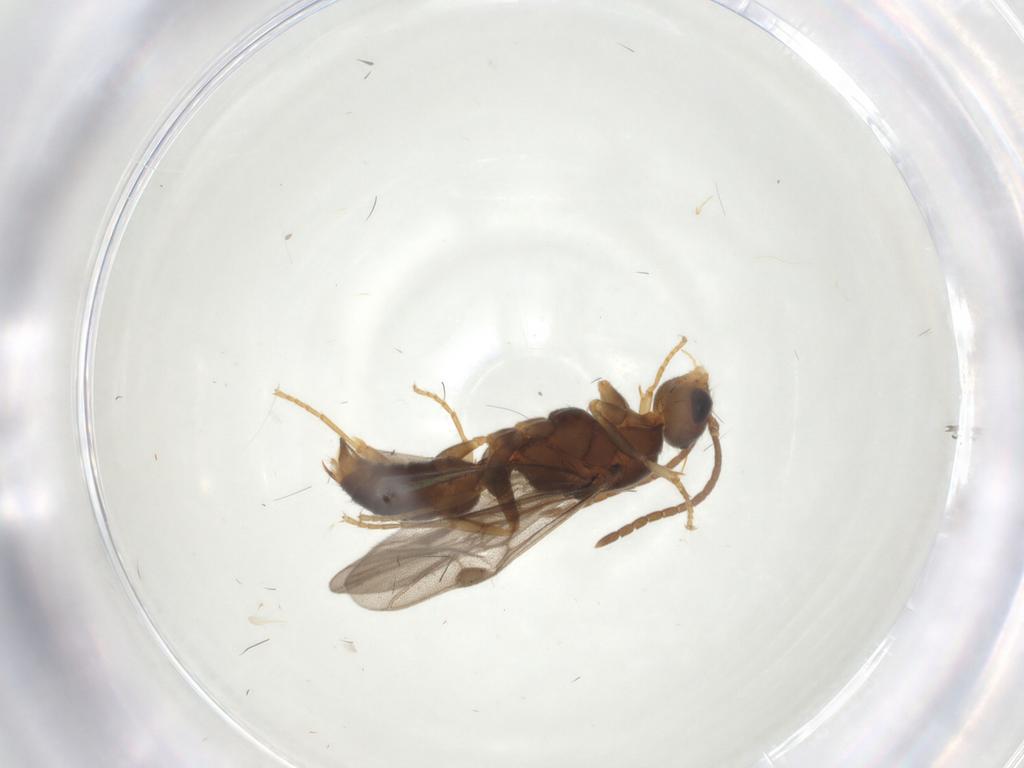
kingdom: Animalia
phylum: Arthropoda
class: Insecta
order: Hymenoptera
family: Formicidae
